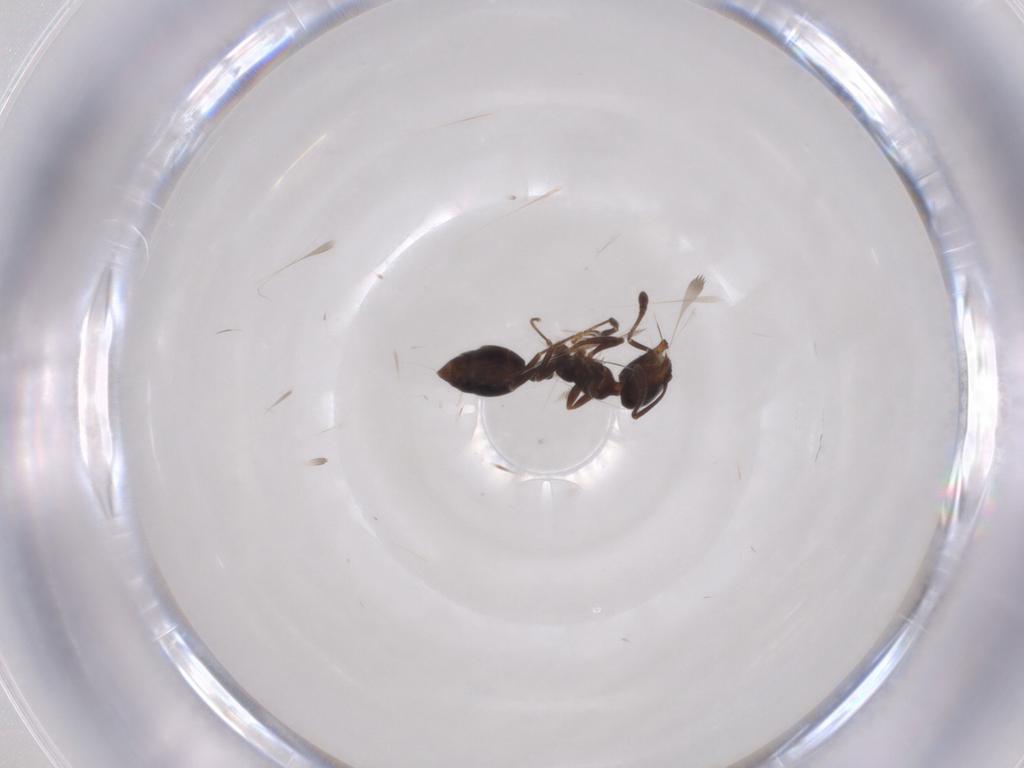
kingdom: Animalia
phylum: Arthropoda
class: Insecta
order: Hymenoptera
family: Formicidae
